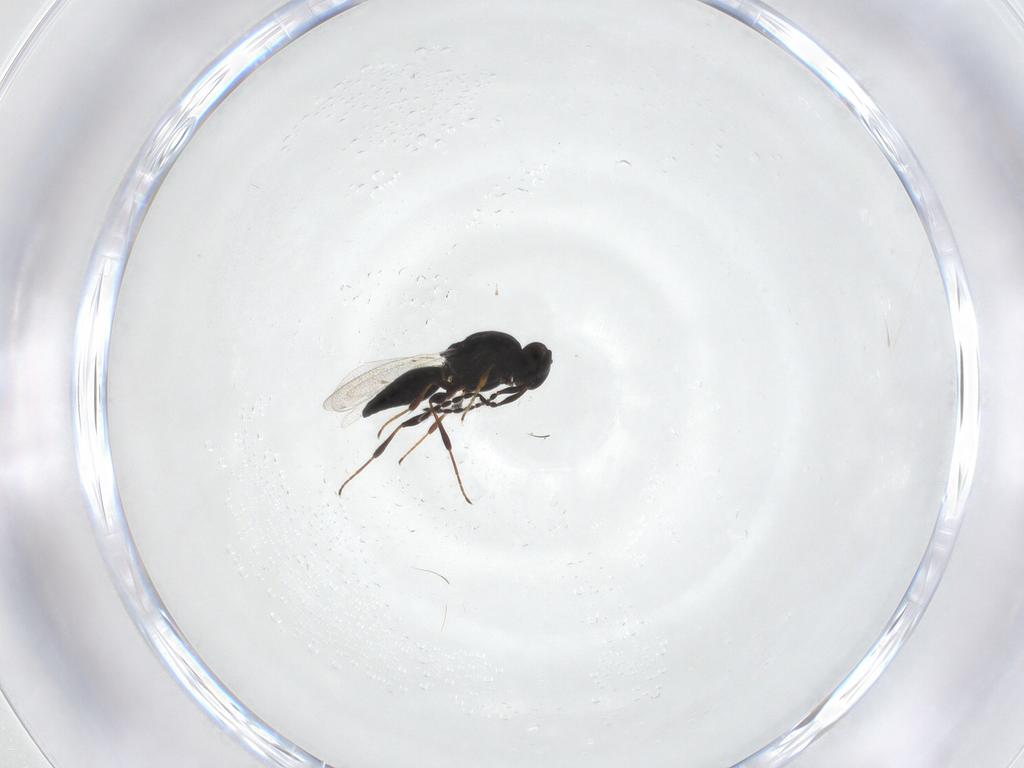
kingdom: Animalia
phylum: Arthropoda
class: Insecta
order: Hymenoptera
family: Platygastridae
